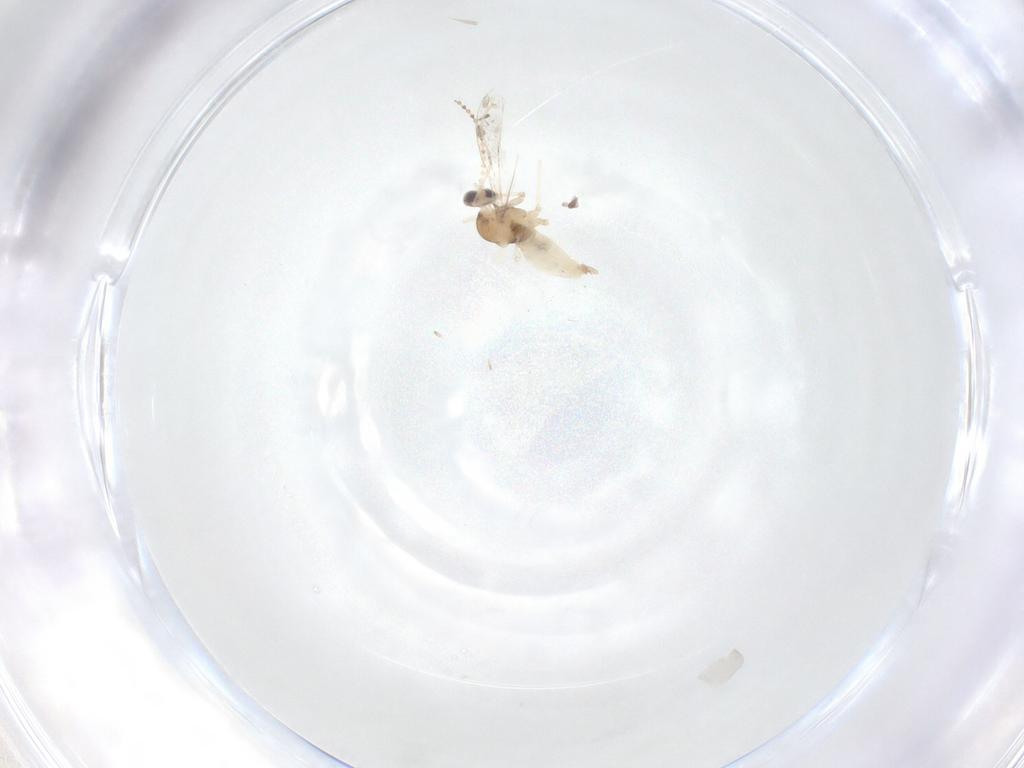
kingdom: Animalia
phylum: Arthropoda
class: Insecta
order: Diptera
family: Cecidomyiidae
